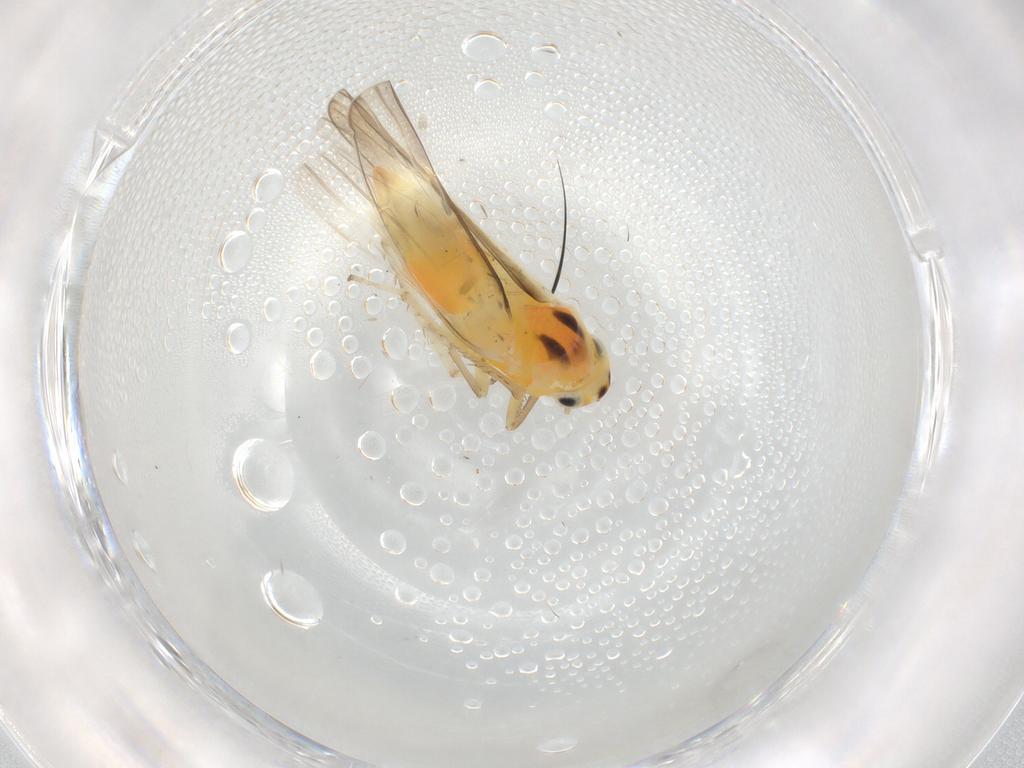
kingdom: Animalia
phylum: Arthropoda
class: Insecta
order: Hemiptera
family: Cicadellidae
